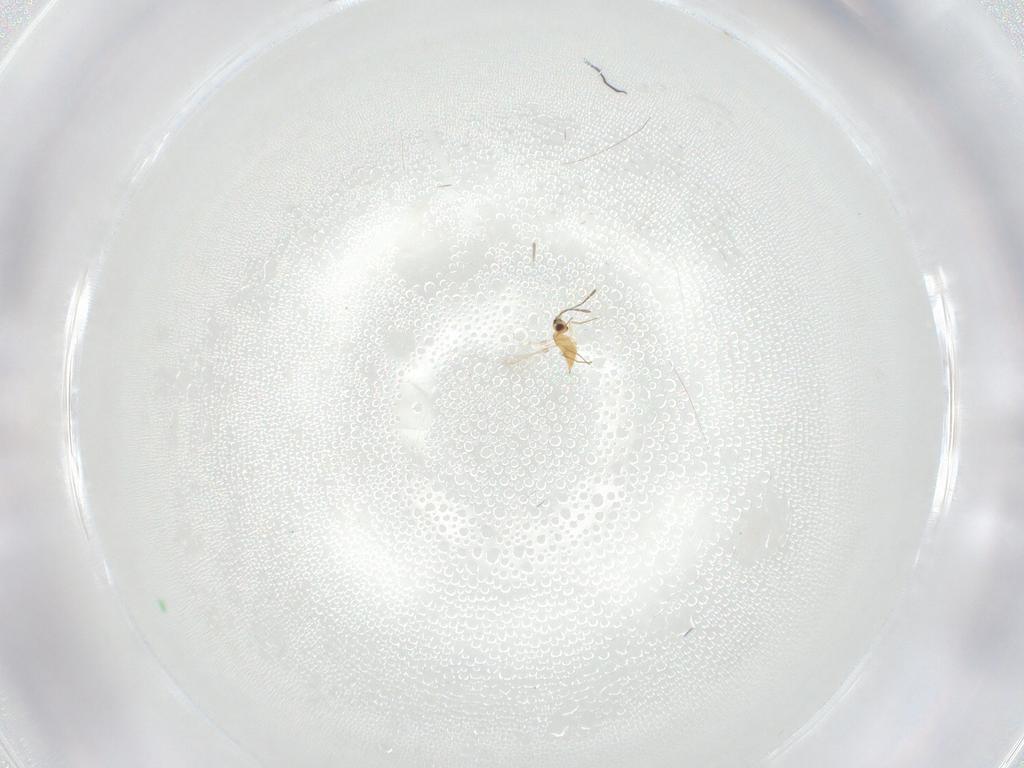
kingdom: Animalia
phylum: Arthropoda
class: Insecta
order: Hymenoptera
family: Mymaridae
